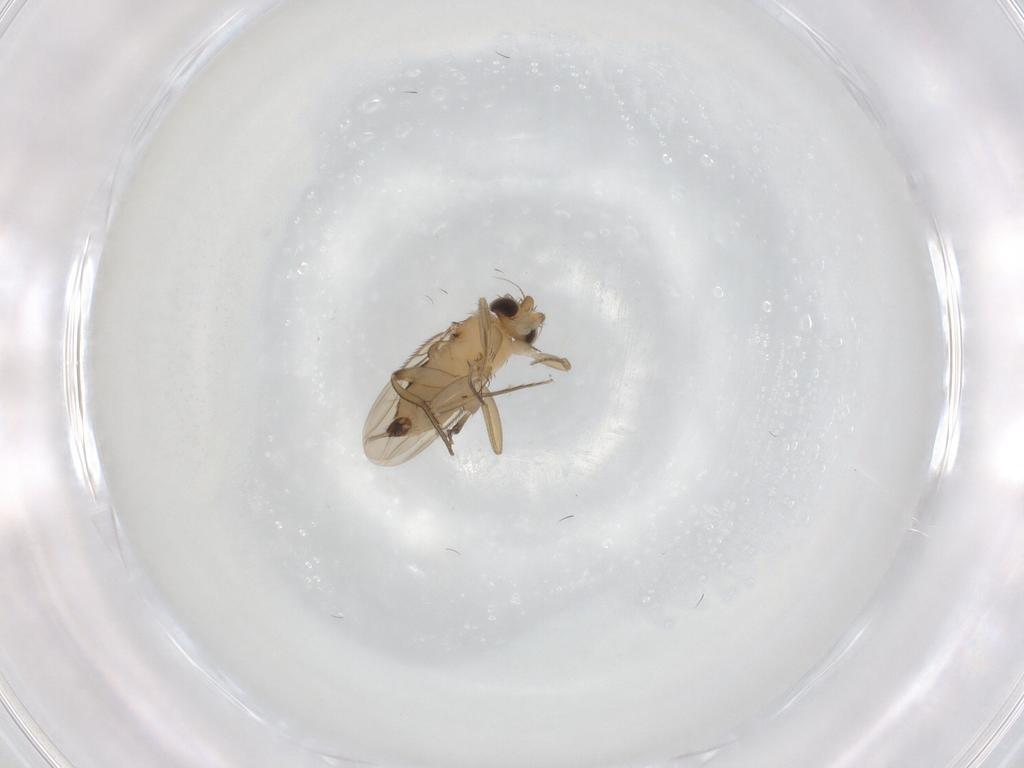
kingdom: Animalia
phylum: Arthropoda
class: Insecta
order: Diptera
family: Phoridae
